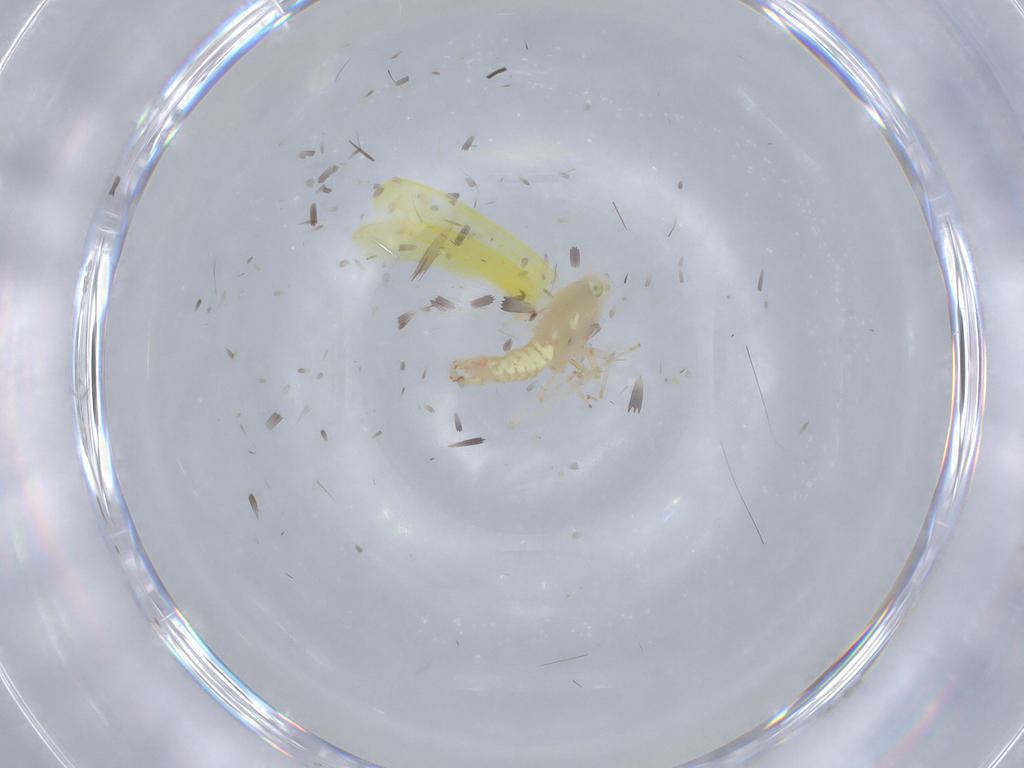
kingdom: Animalia
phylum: Arthropoda
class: Insecta
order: Hemiptera
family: Cicadellidae
